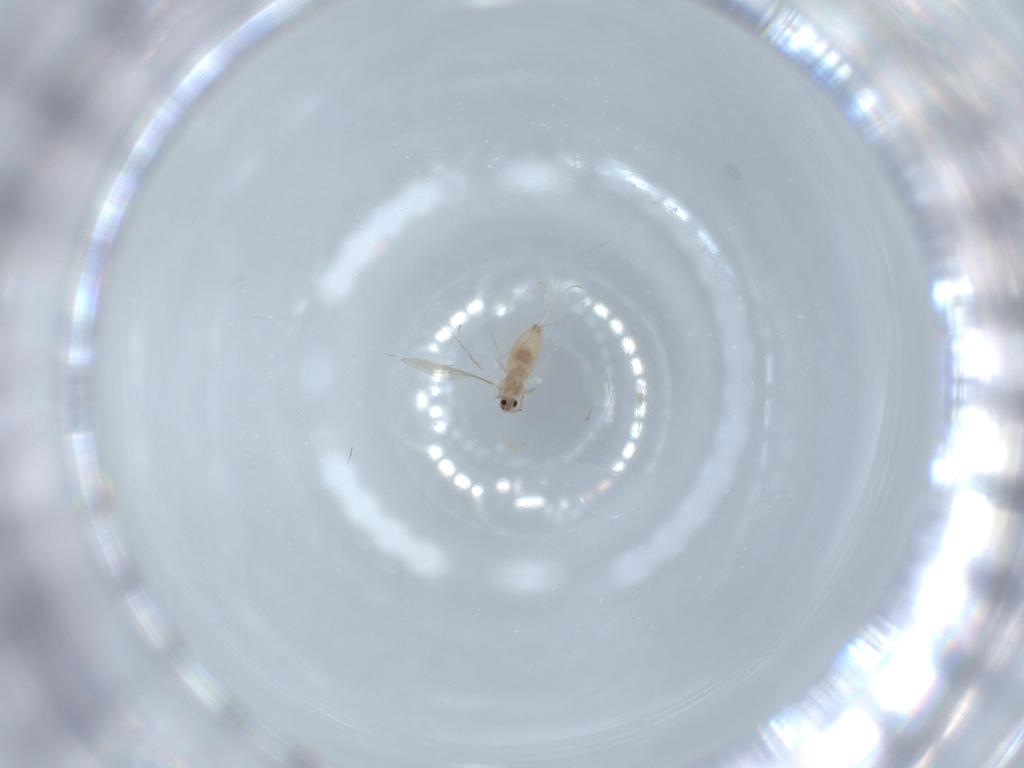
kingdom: Animalia
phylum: Arthropoda
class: Insecta
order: Diptera
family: Cecidomyiidae
